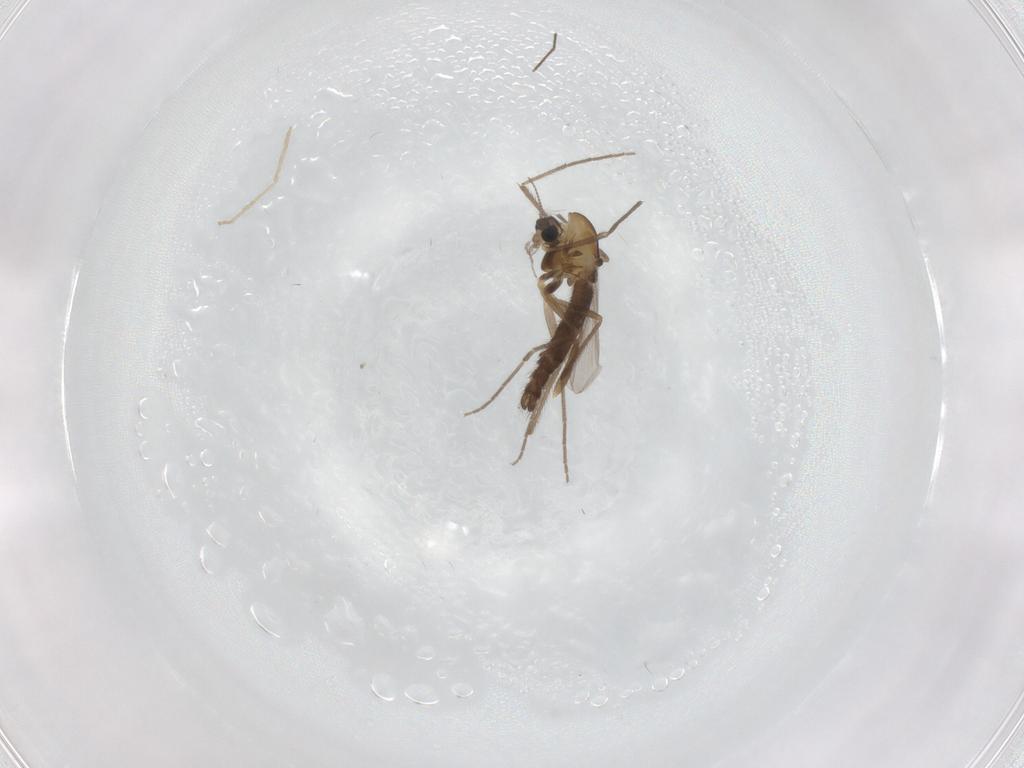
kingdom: Animalia
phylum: Arthropoda
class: Insecta
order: Diptera
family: Chironomidae
